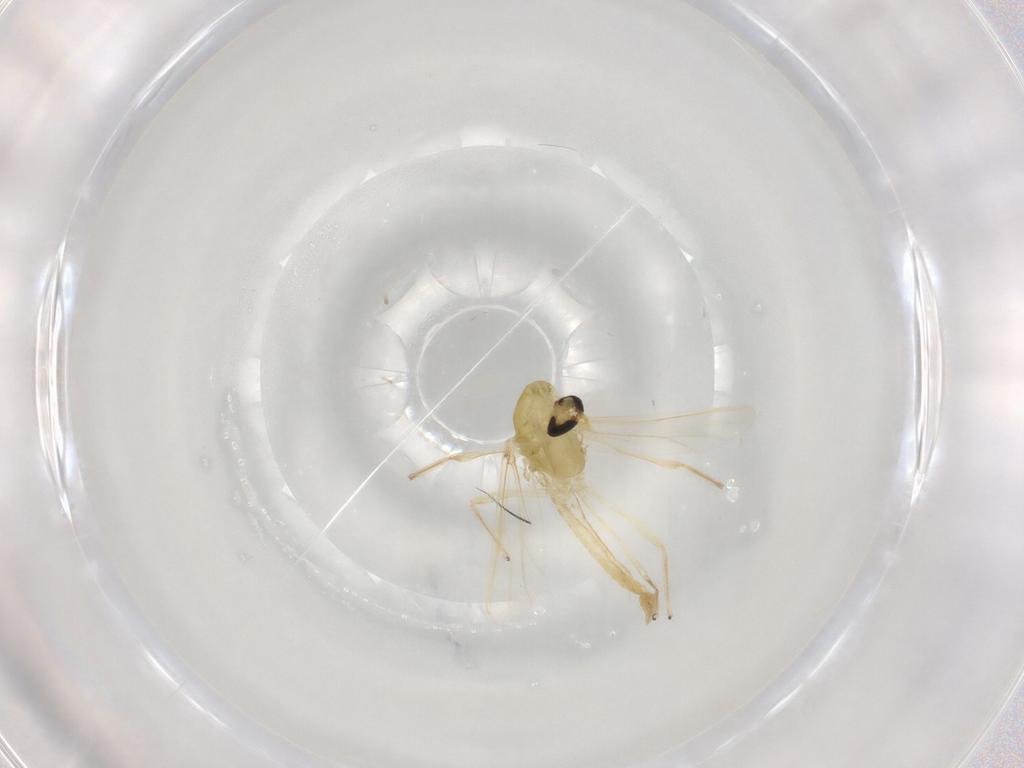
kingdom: Animalia
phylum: Arthropoda
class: Insecta
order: Diptera
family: Chironomidae
